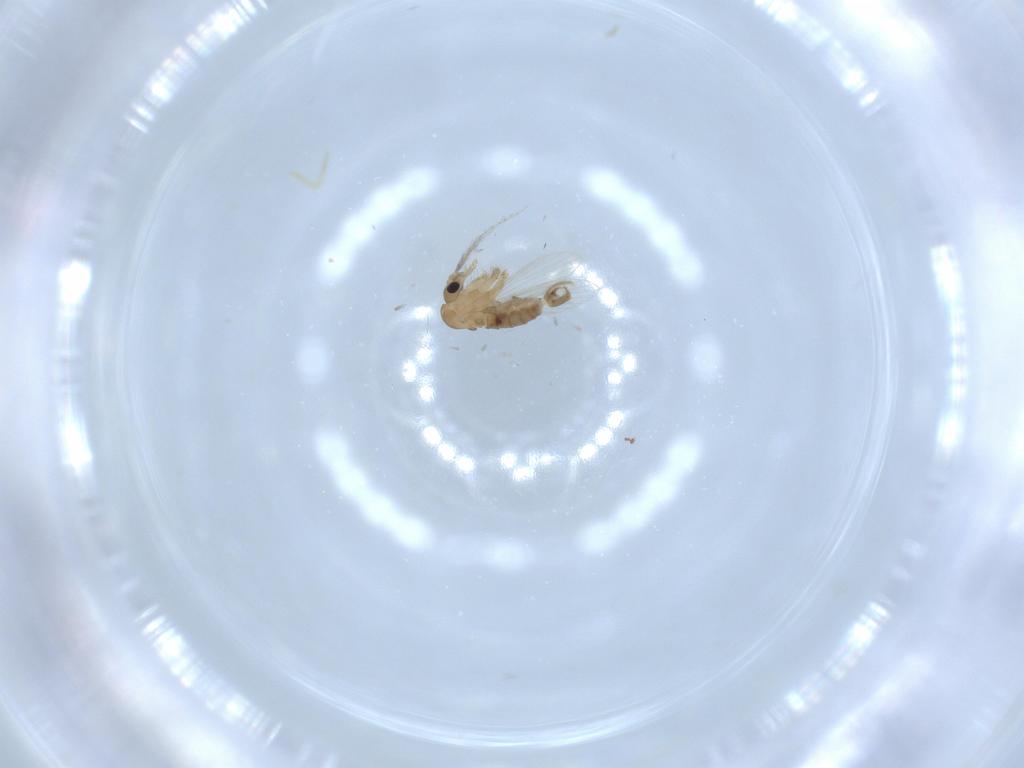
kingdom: Animalia
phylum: Arthropoda
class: Insecta
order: Diptera
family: Psychodidae
